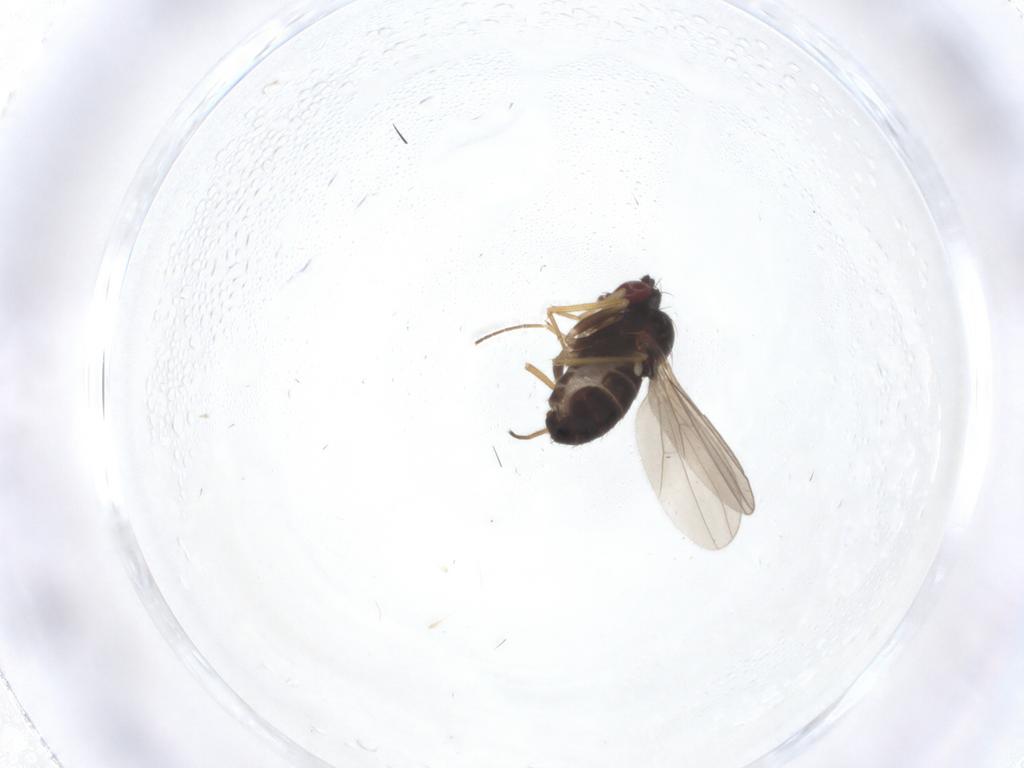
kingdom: Animalia
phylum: Arthropoda
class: Insecta
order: Diptera
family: Dolichopodidae
